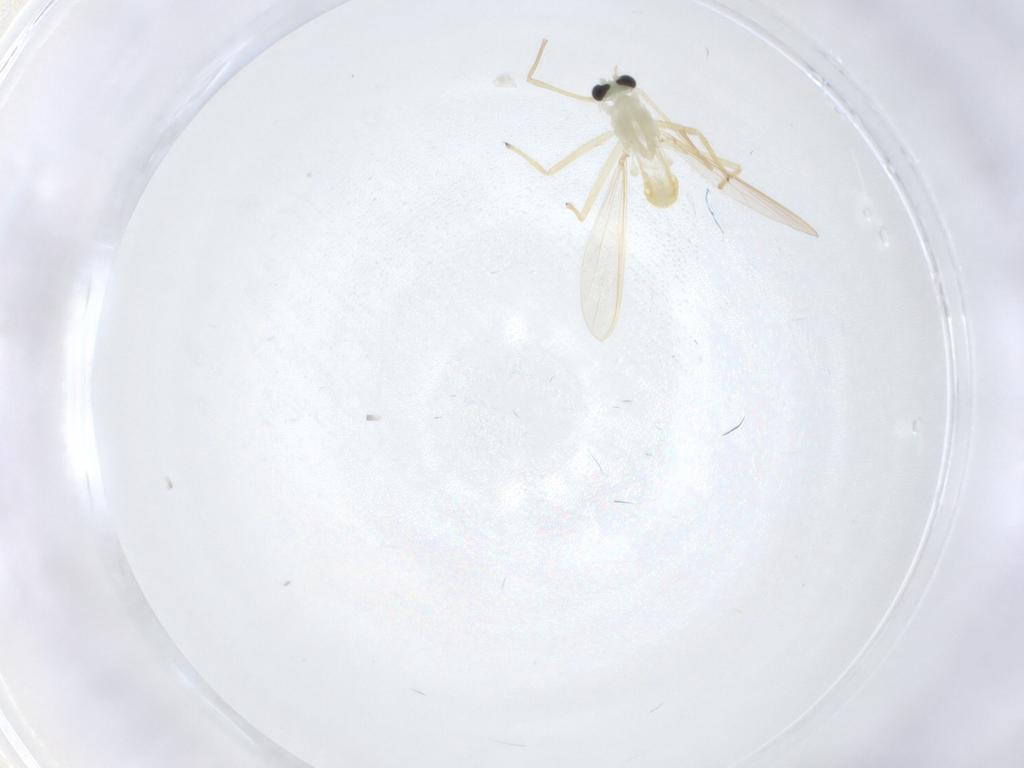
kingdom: Animalia
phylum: Arthropoda
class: Insecta
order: Diptera
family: Chironomidae
